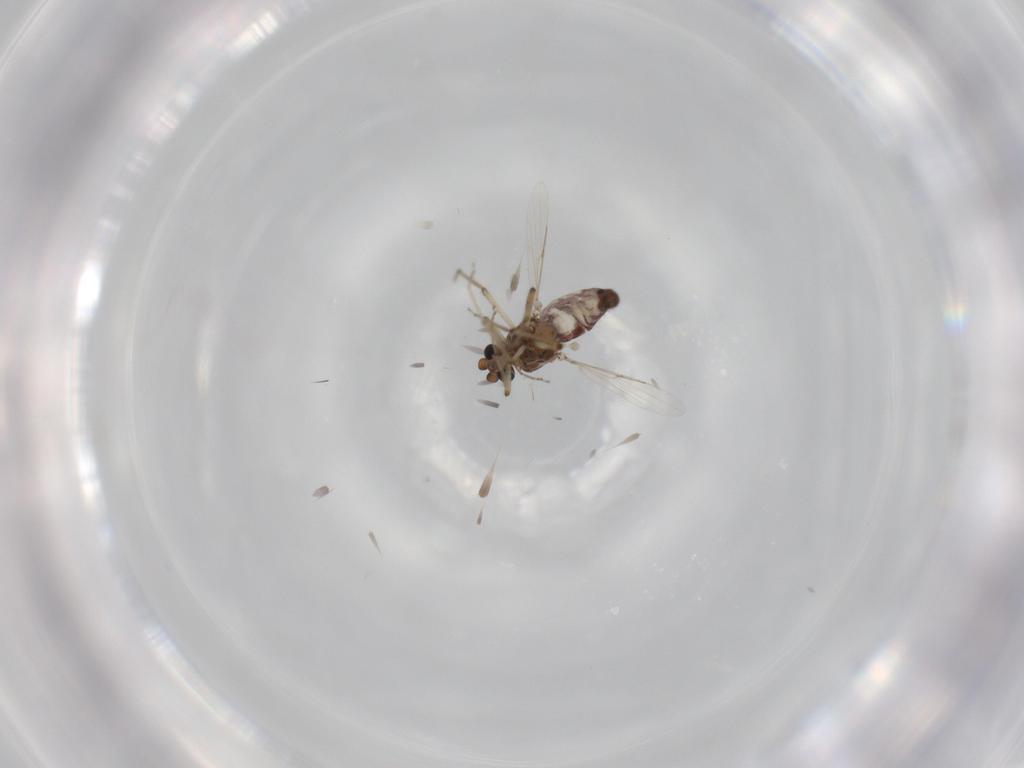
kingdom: Animalia
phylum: Arthropoda
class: Insecta
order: Diptera
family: Ceratopogonidae
